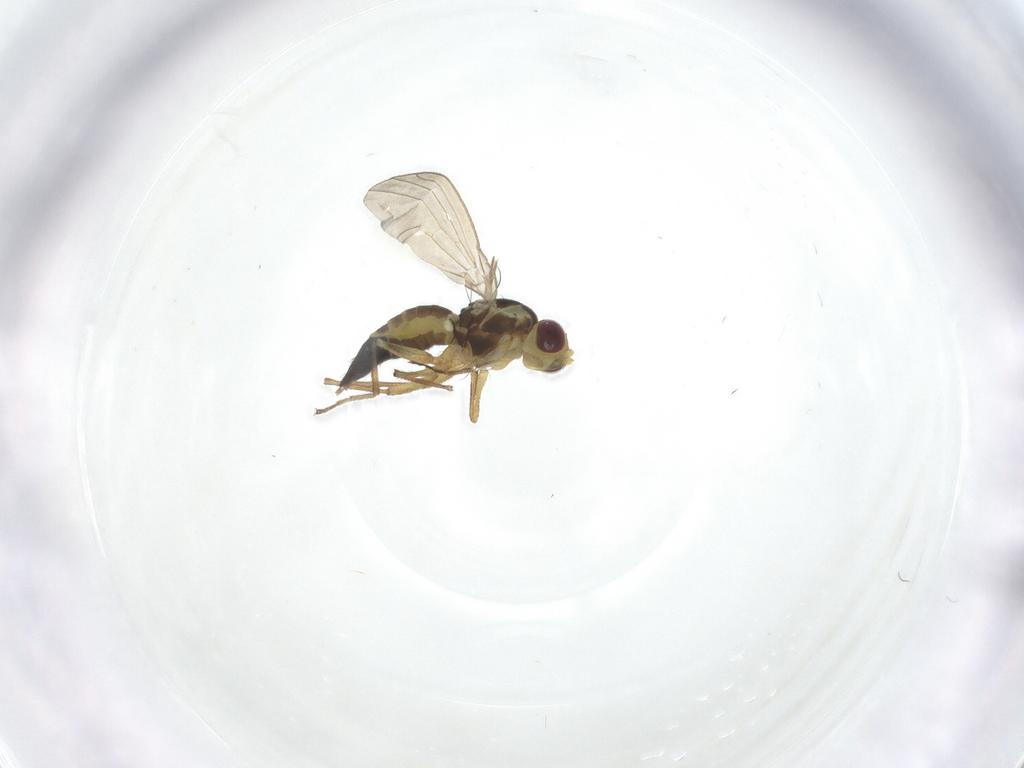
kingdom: Animalia
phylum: Arthropoda
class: Insecta
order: Diptera
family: Agromyzidae
